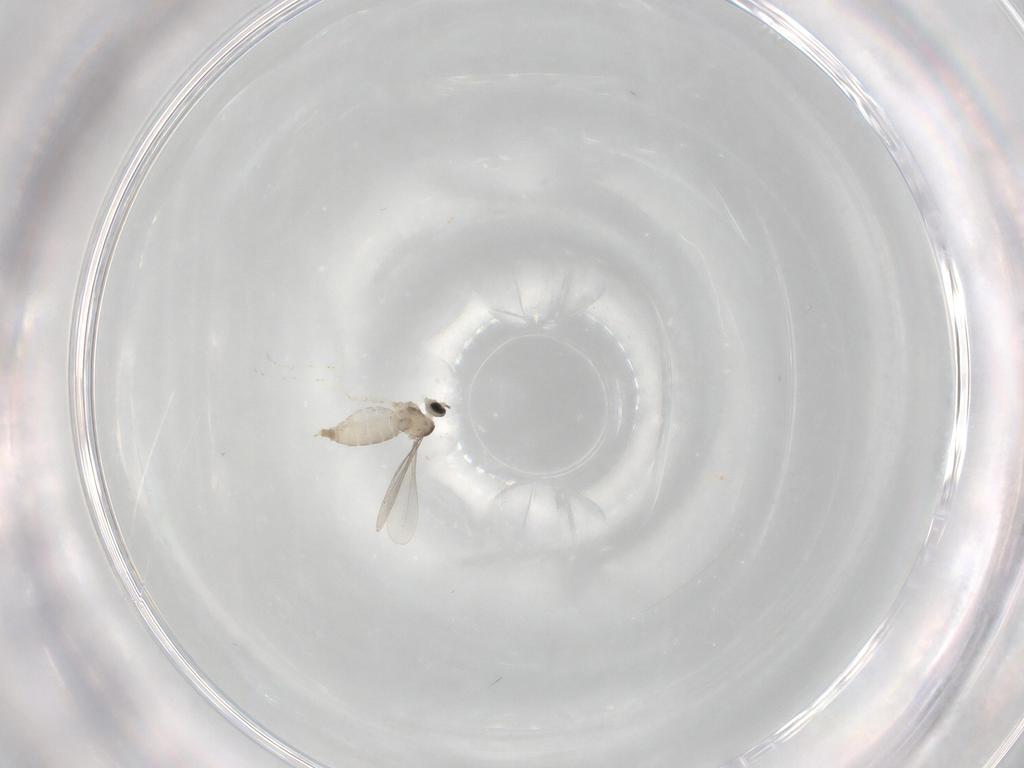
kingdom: Animalia
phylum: Arthropoda
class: Insecta
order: Diptera
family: Cecidomyiidae
